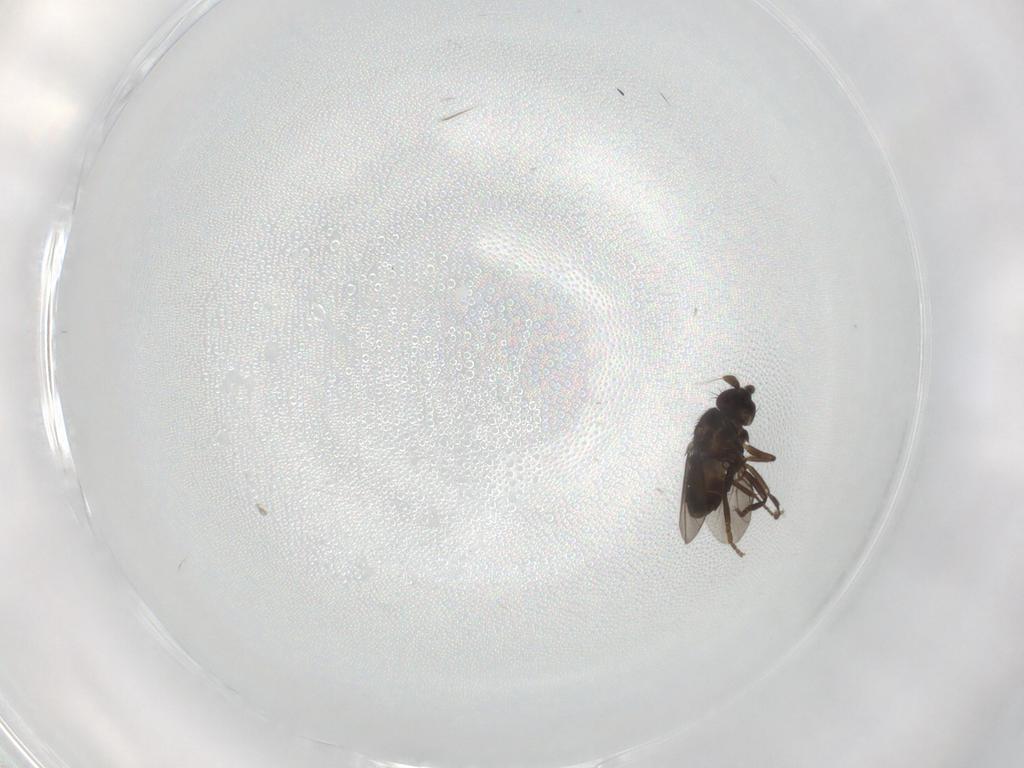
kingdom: Animalia
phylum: Arthropoda
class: Insecta
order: Diptera
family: Sphaeroceridae
